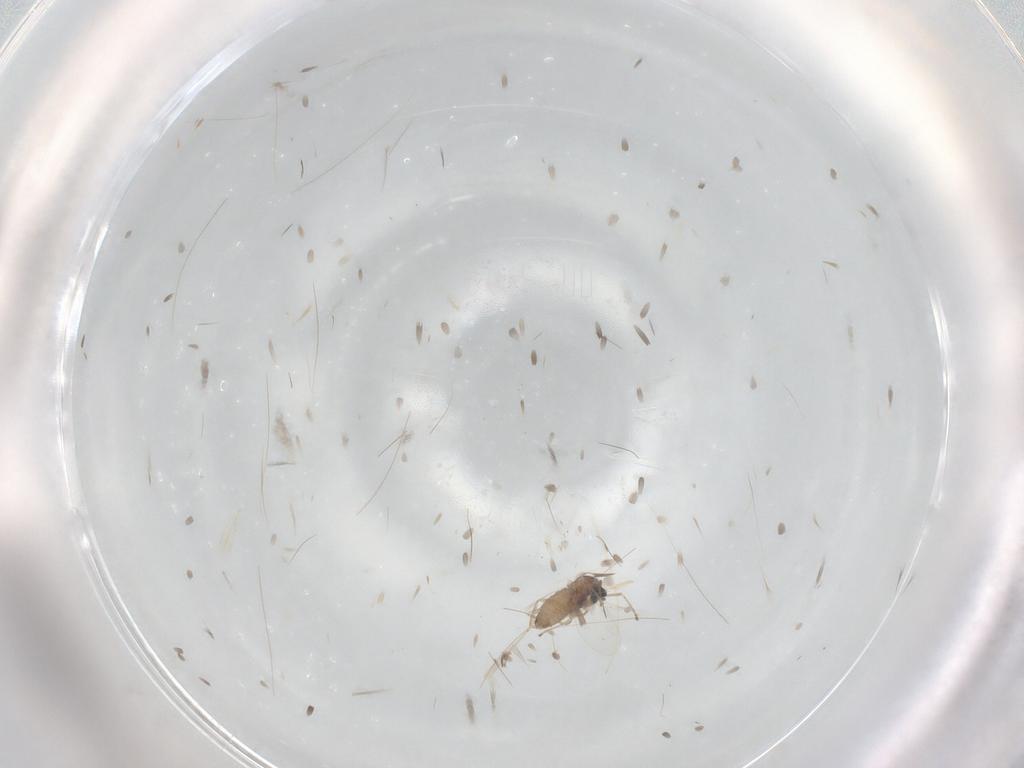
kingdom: Animalia
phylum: Arthropoda
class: Insecta
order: Diptera
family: Cecidomyiidae
